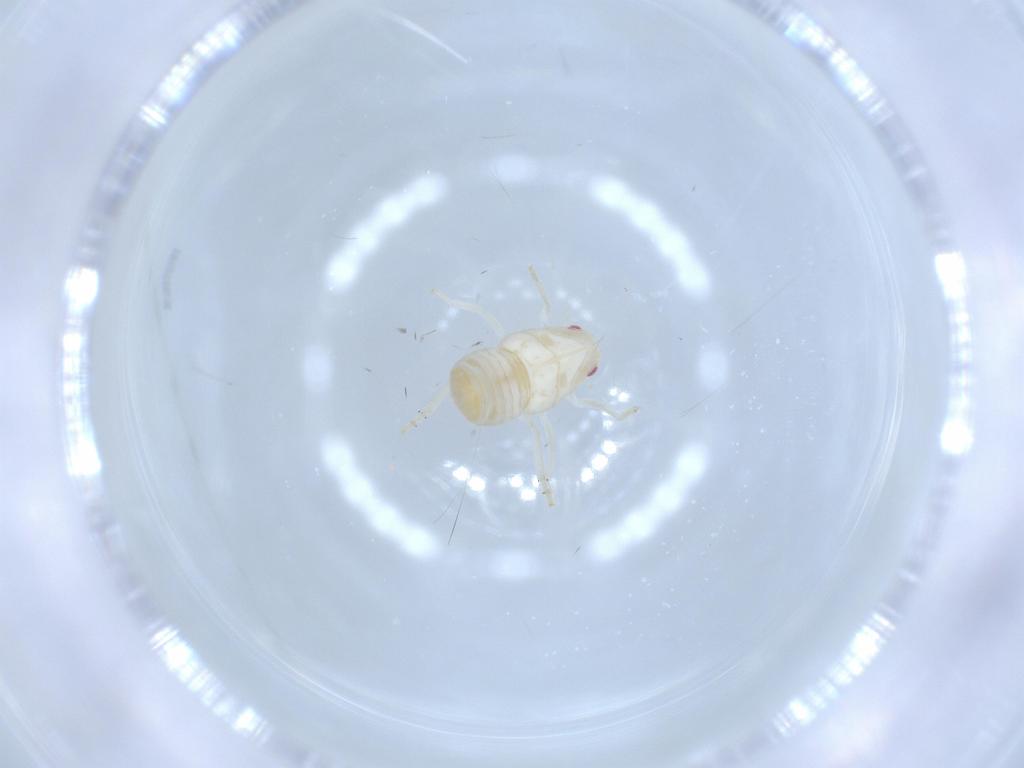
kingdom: Animalia
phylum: Arthropoda
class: Insecta
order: Hemiptera
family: Flatidae
